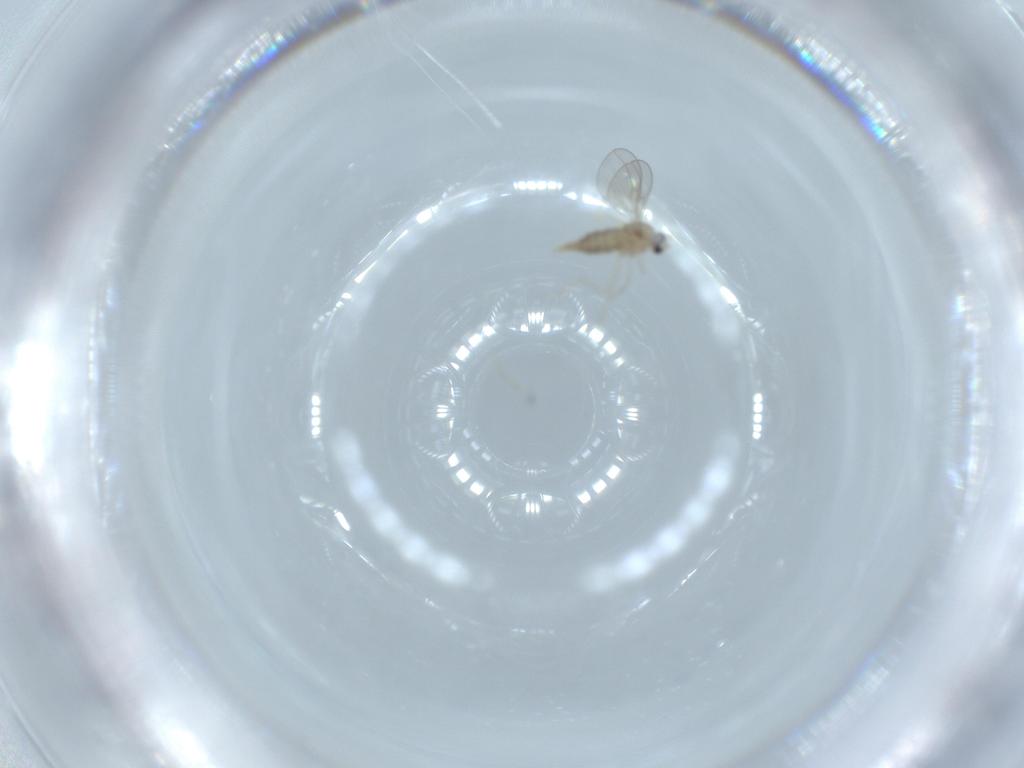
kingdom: Animalia
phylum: Arthropoda
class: Insecta
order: Diptera
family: Cecidomyiidae
